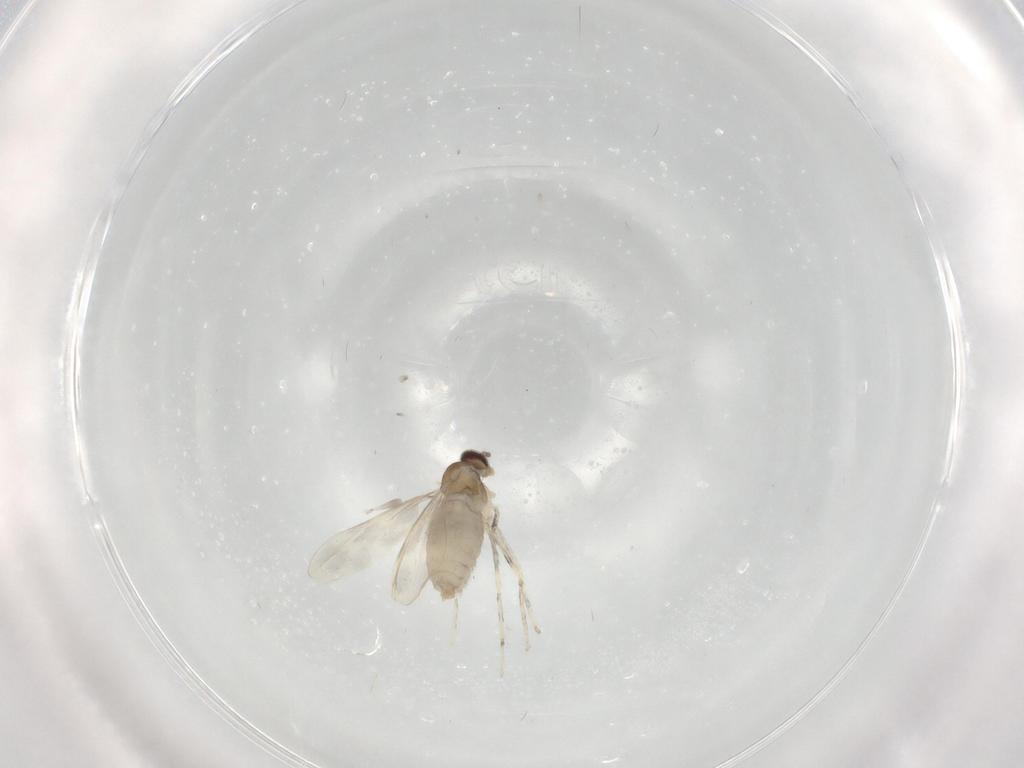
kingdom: Animalia
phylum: Arthropoda
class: Insecta
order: Diptera
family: Cecidomyiidae
